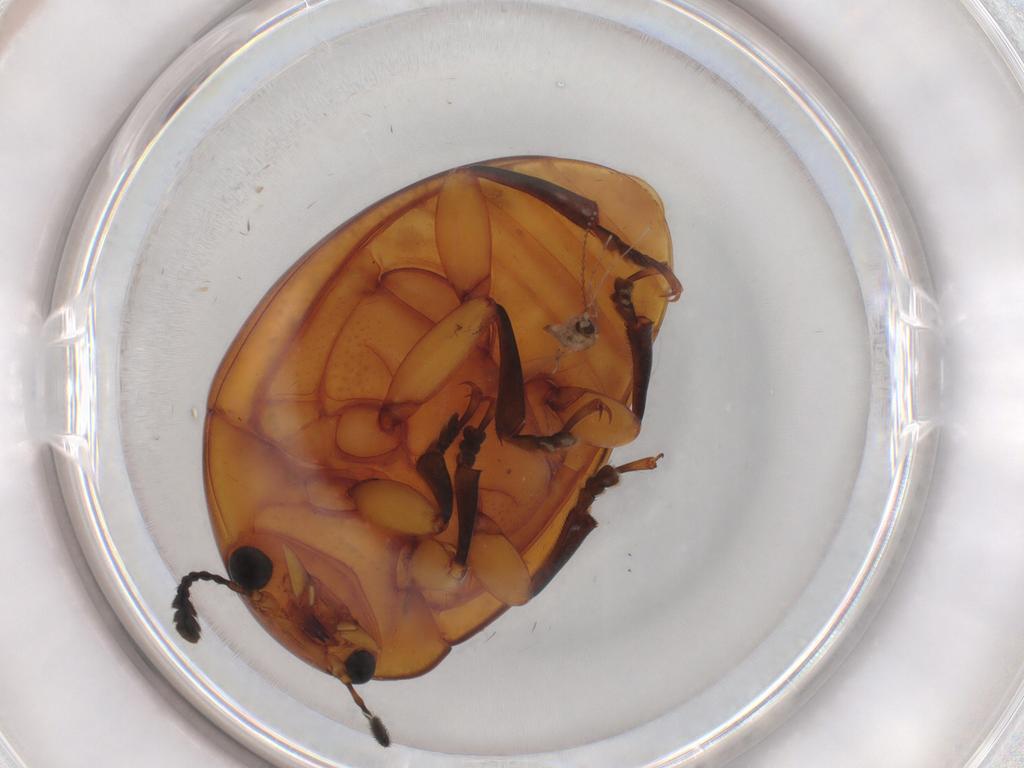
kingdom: Animalia
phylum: Arthropoda
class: Insecta
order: Coleoptera
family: Erotylidae
